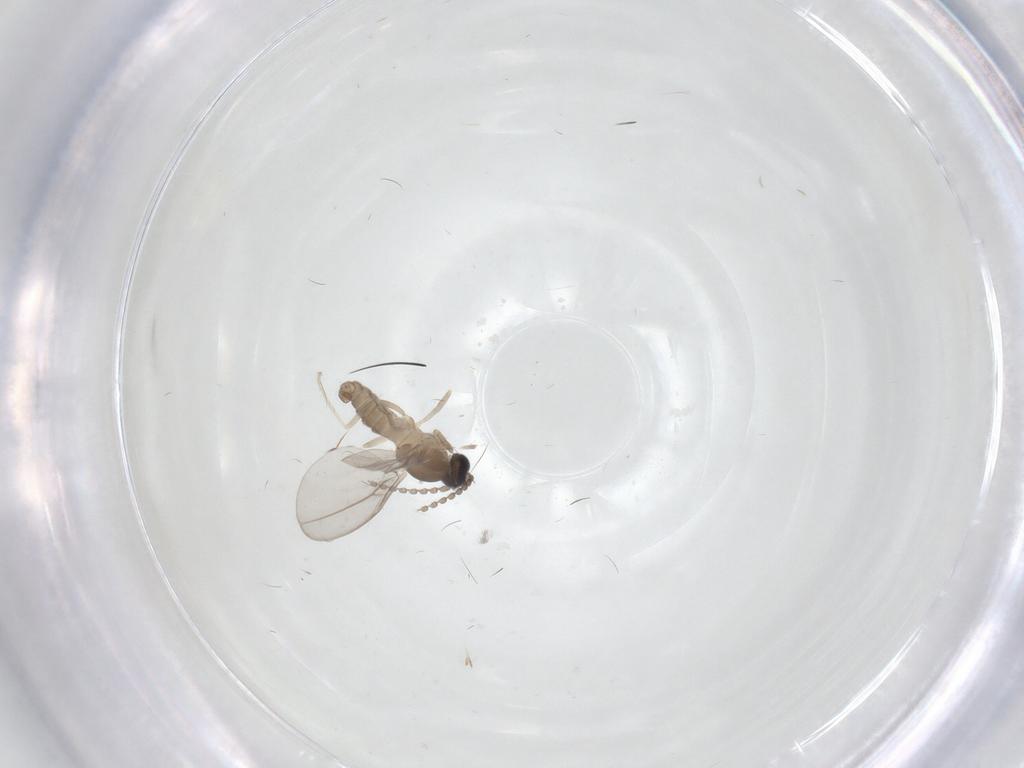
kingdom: Animalia
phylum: Arthropoda
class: Insecta
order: Diptera
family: Cecidomyiidae
